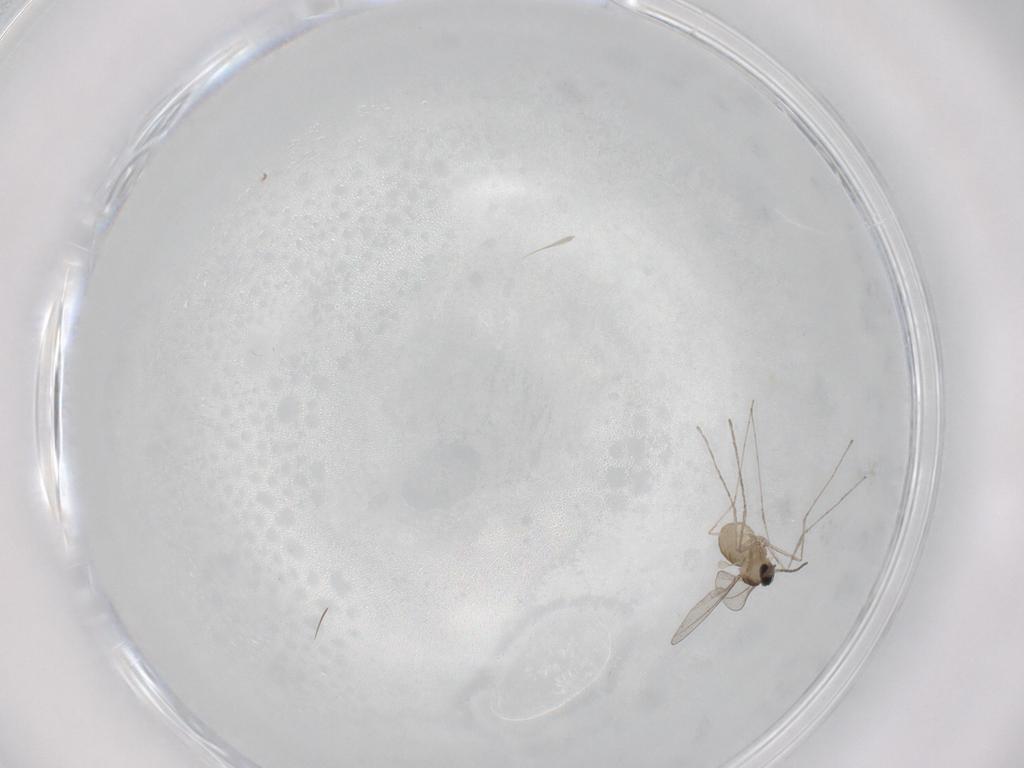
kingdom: Animalia
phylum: Arthropoda
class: Insecta
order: Diptera
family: Cecidomyiidae
